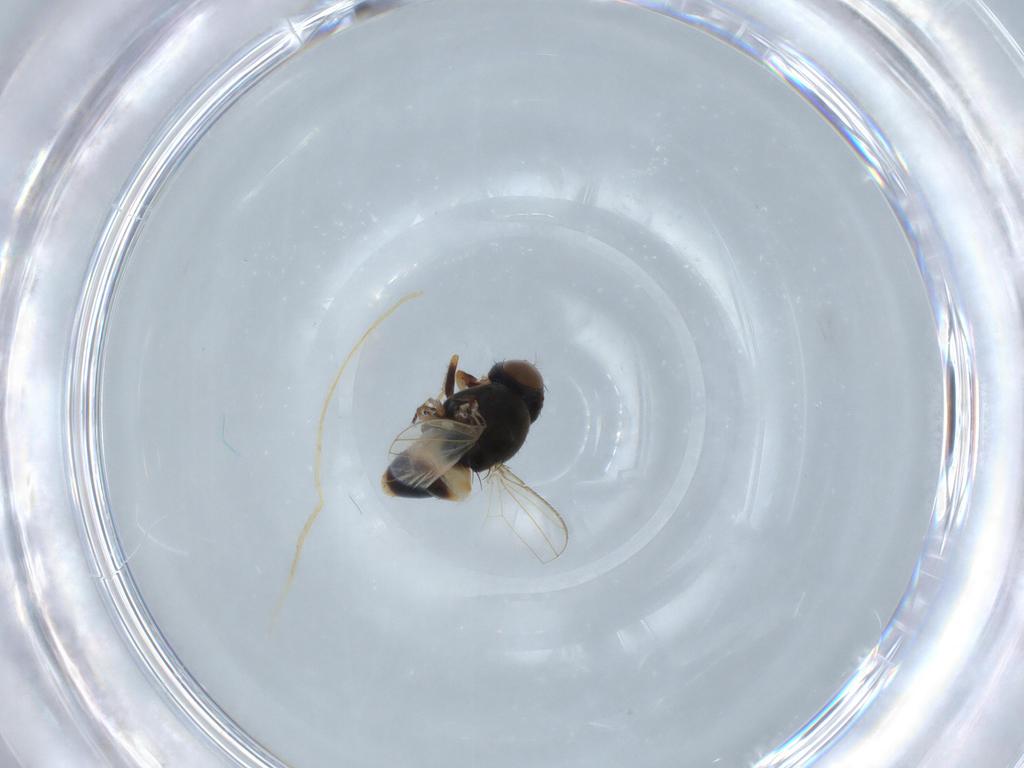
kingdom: Animalia
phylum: Arthropoda
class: Insecta
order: Diptera
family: Ephydridae
